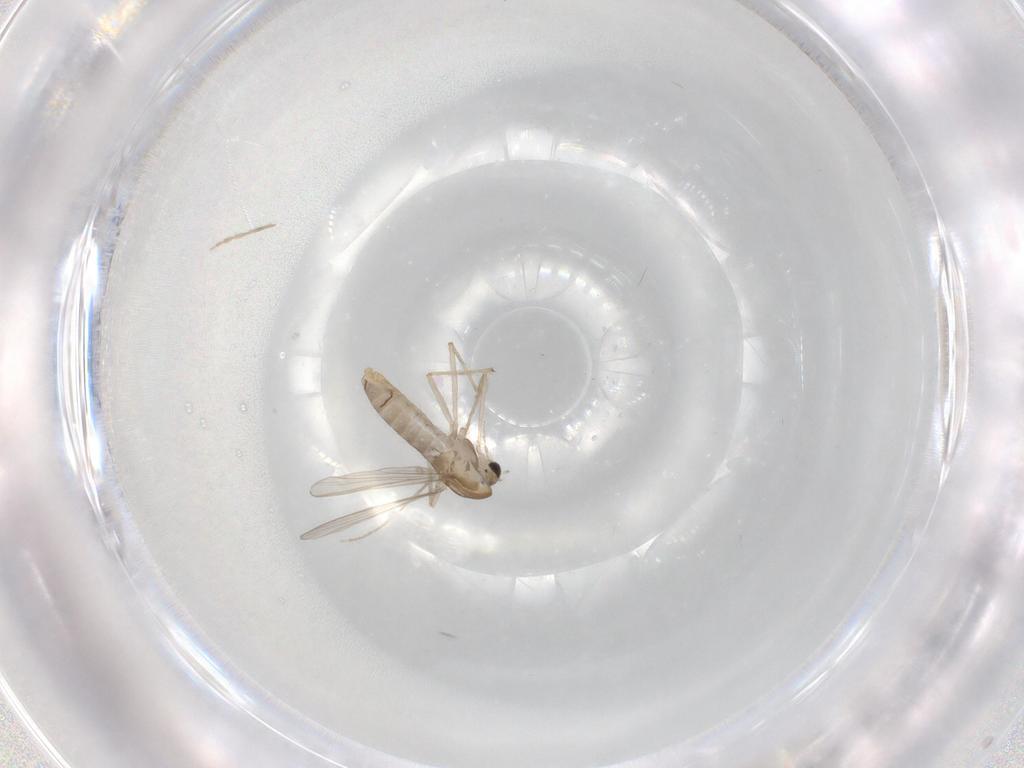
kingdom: Animalia
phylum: Arthropoda
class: Insecta
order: Diptera
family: Chironomidae
